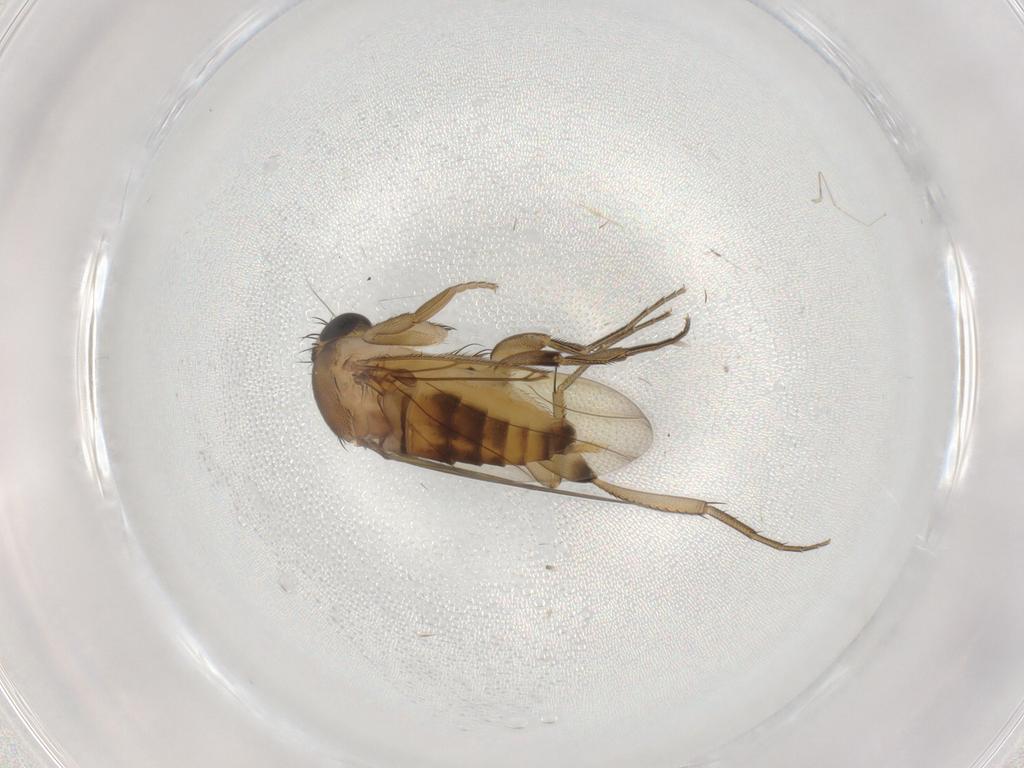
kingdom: Animalia
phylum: Arthropoda
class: Insecta
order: Diptera
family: Phoridae
